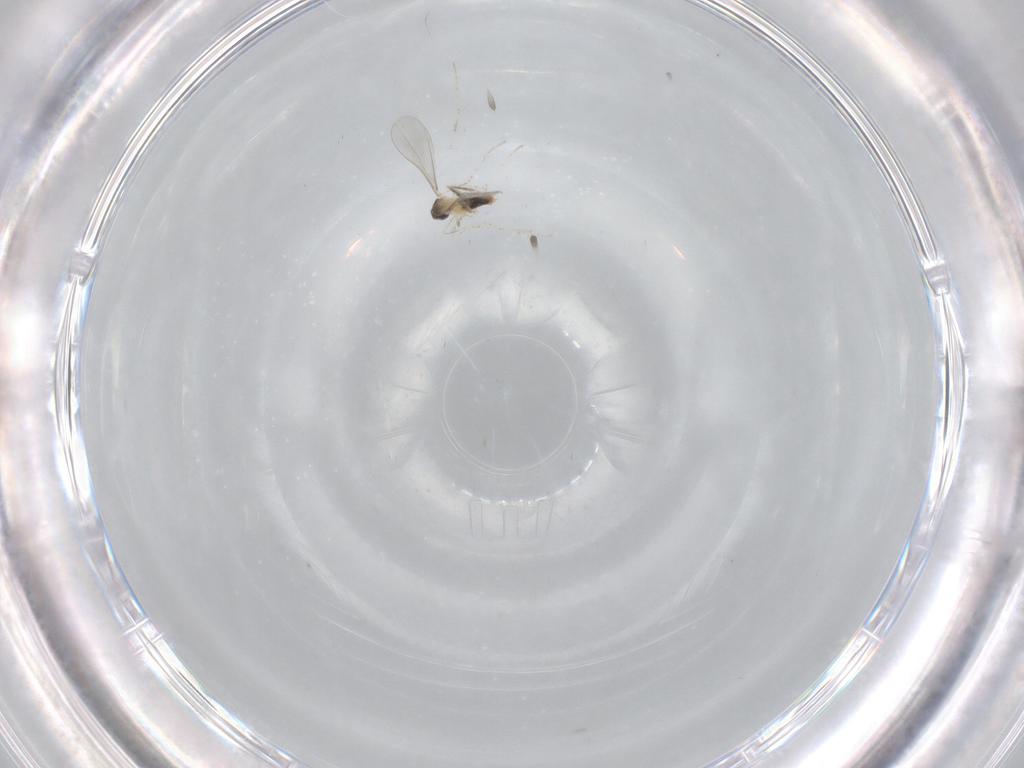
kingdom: Animalia
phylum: Arthropoda
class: Insecta
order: Diptera
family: Cecidomyiidae
